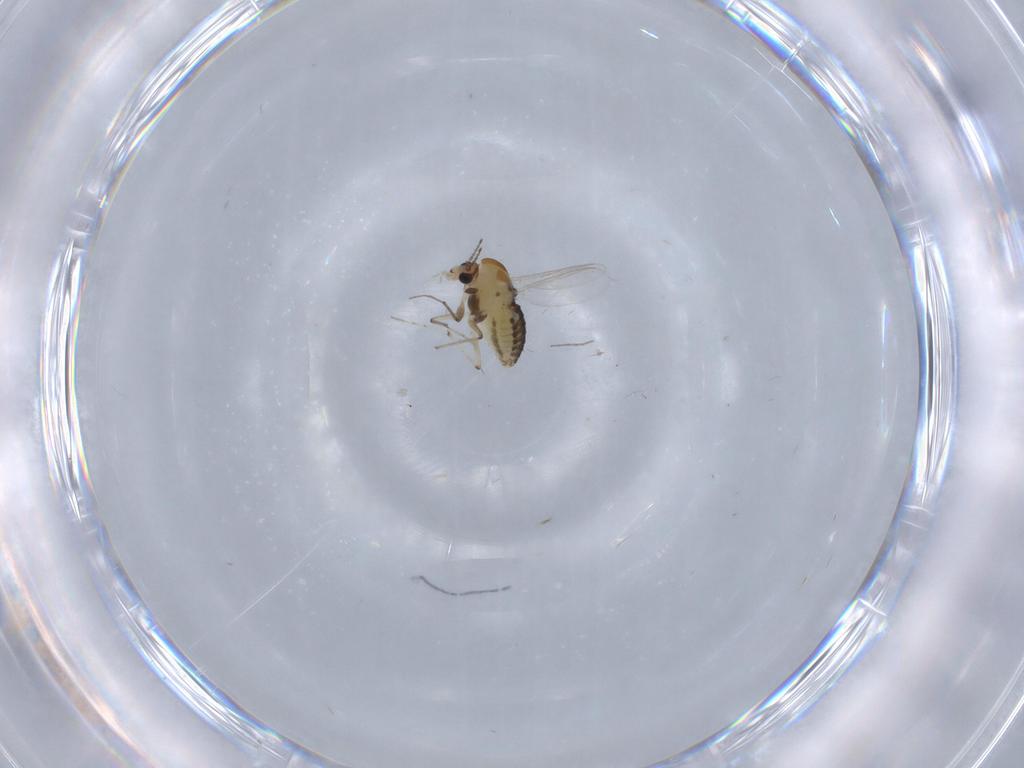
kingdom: Animalia
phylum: Arthropoda
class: Insecta
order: Diptera
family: Chironomidae
